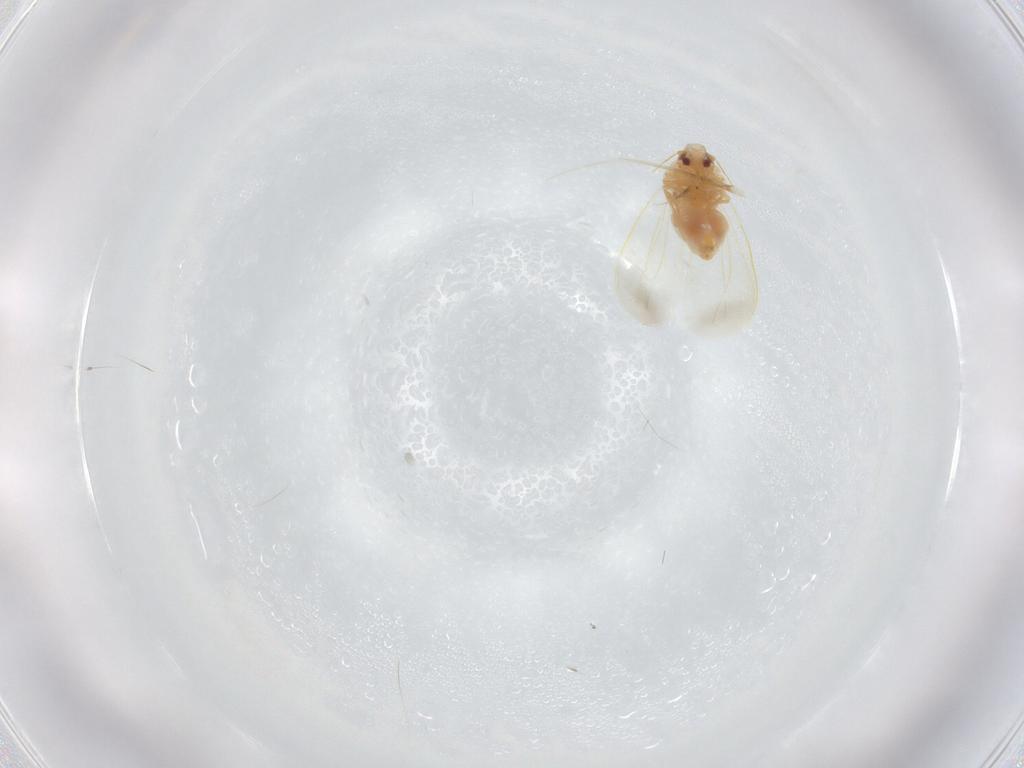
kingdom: Animalia
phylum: Arthropoda
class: Insecta
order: Hemiptera
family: Aleyrodidae
